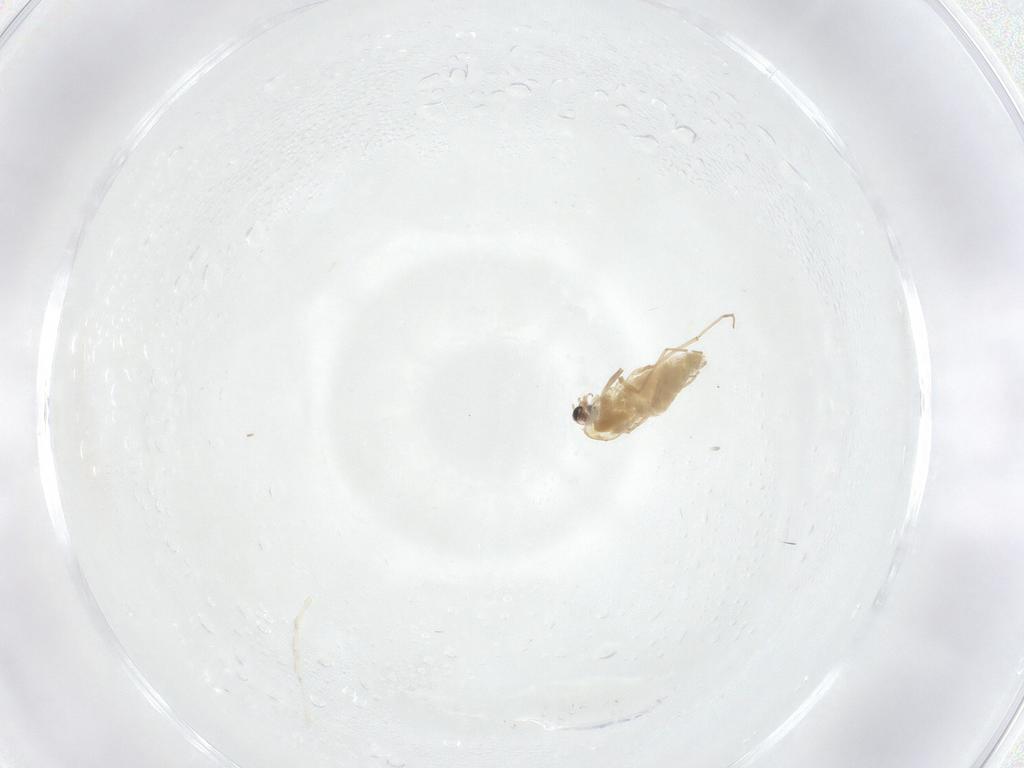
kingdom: Animalia
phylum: Arthropoda
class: Insecta
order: Diptera
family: Chironomidae
